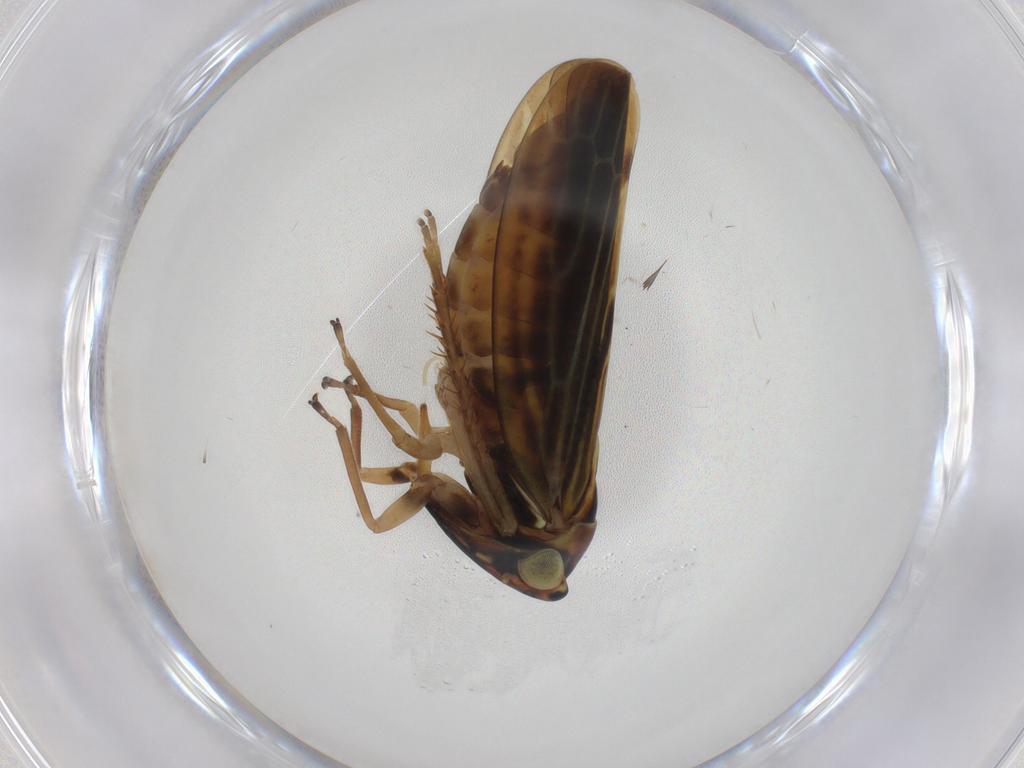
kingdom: Animalia
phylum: Arthropoda
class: Insecta
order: Hemiptera
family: Cicadellidae
